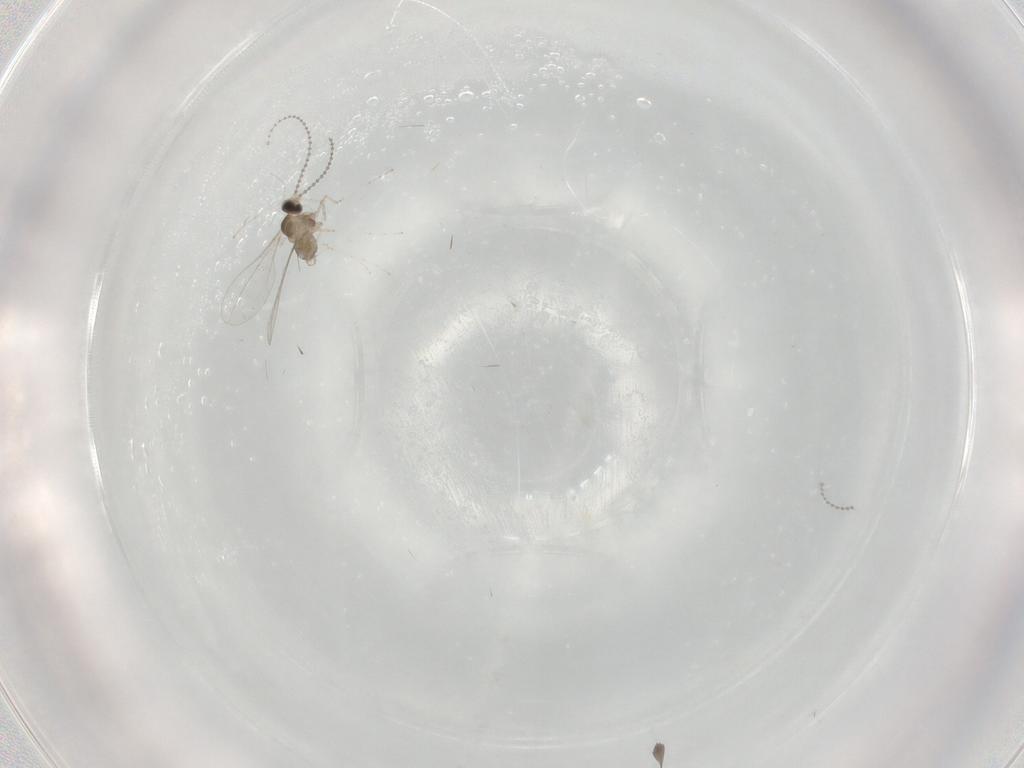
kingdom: Animalia
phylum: Arthropoda
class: Insecta
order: Diptera
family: Cecidomyiidae
